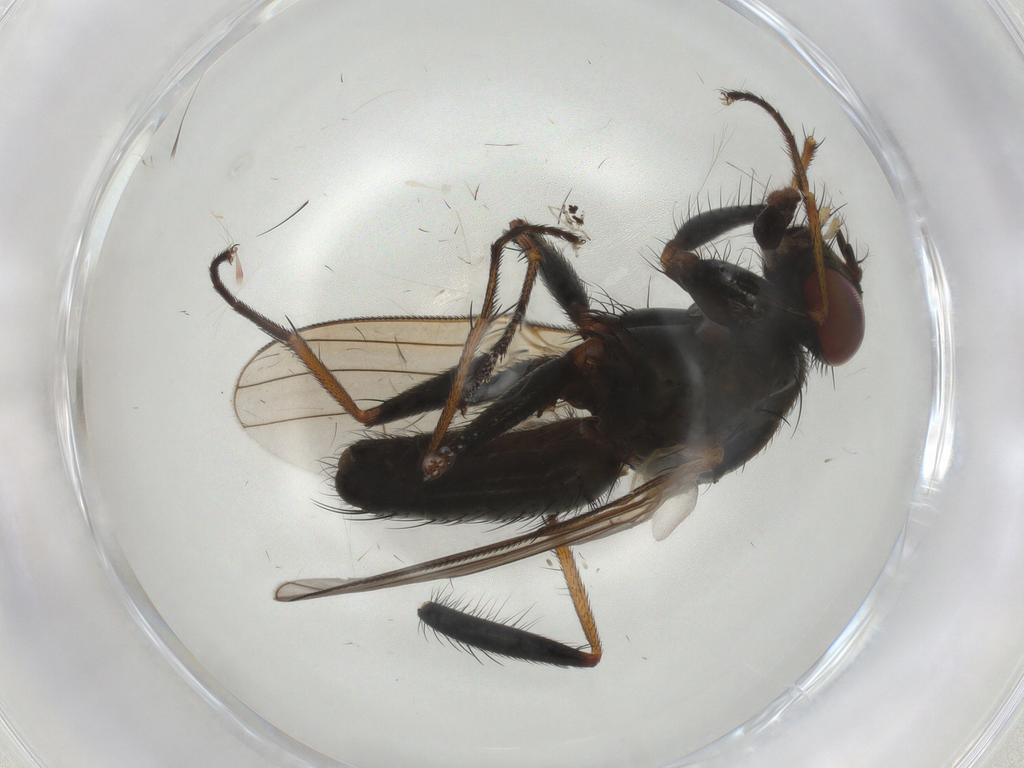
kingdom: Animalia
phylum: Arthropoda
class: Insecta
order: Diptera
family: Muscidae
